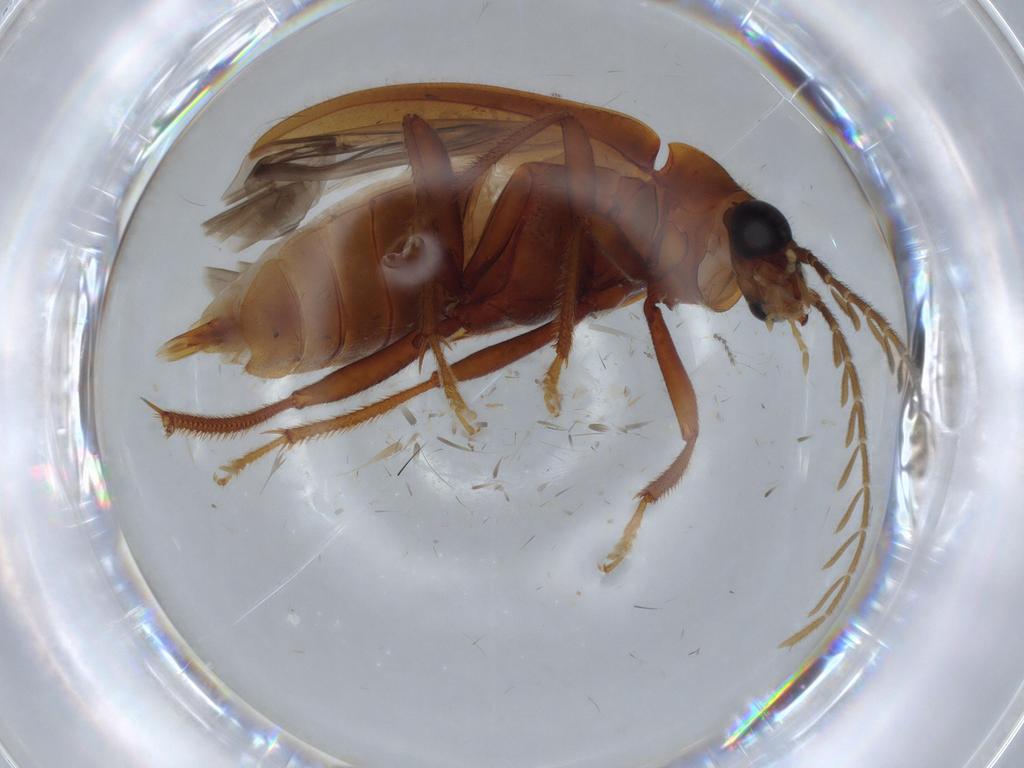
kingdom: Animalia
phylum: Arthropoda
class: Insecta
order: Coleoptera
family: Ptilodactylidae
